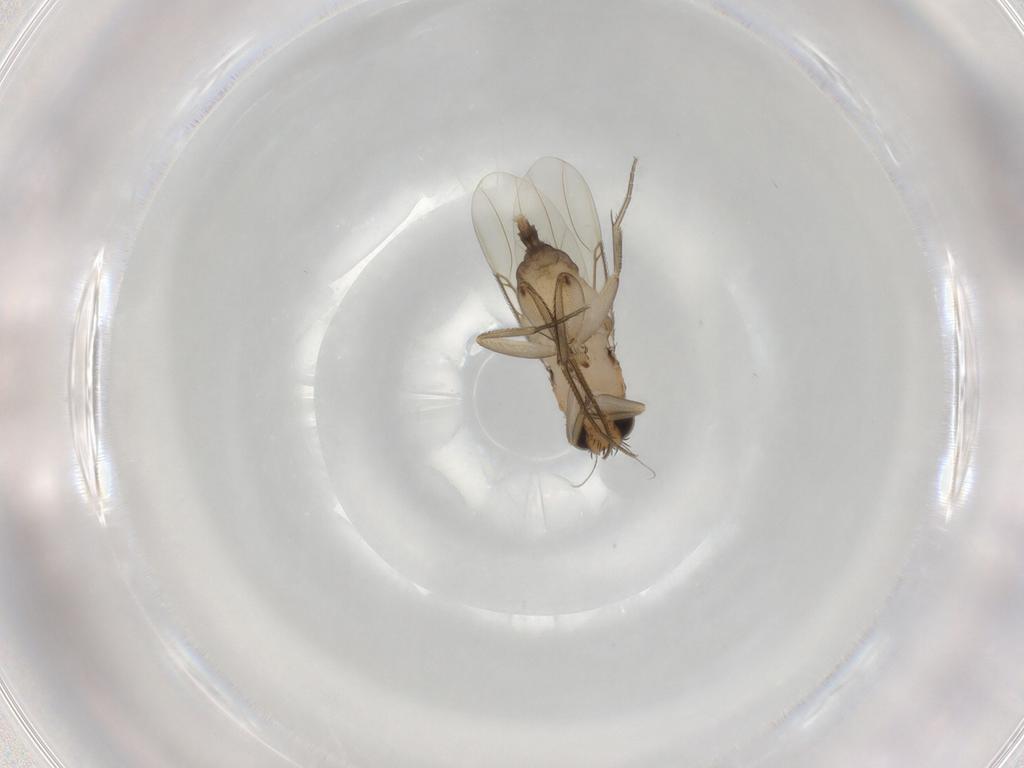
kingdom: Animalia
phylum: Arthropoda
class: Insecta
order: Diptera
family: Phoridae
